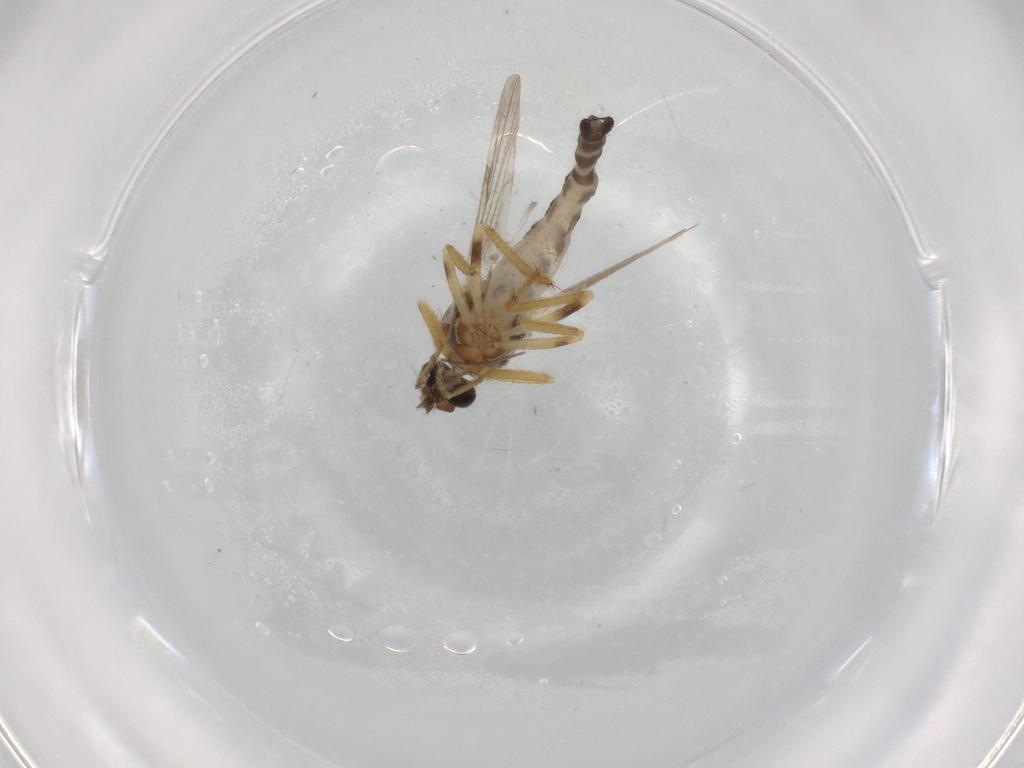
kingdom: Animalia
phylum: Arthropoda
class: Insecta
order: Diptera
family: Ceratopogonidae
